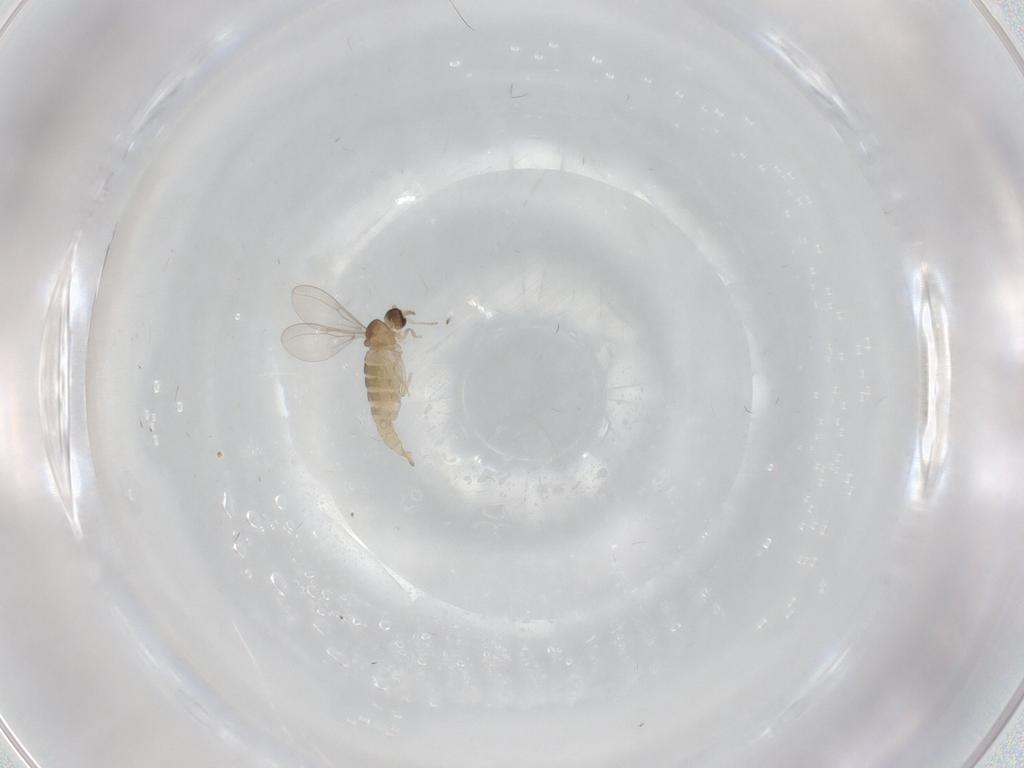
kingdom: Animalia
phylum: Arthropoda
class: Insecta
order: Diptera
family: Cecidomyiidae
